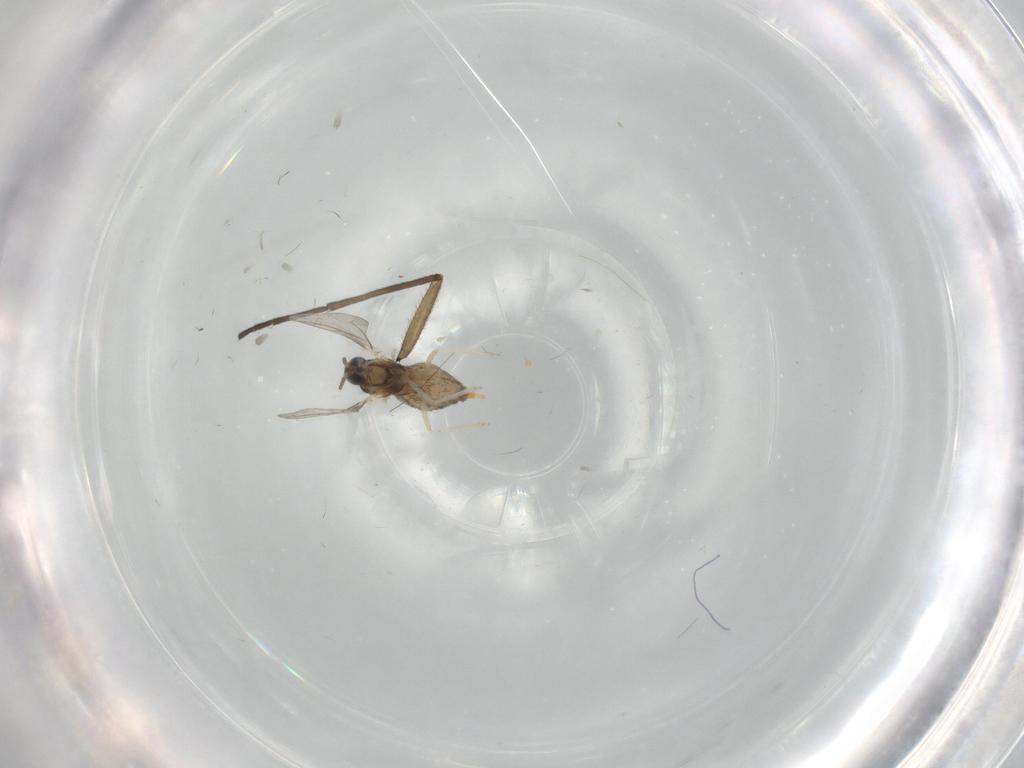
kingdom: Animalia
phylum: Arthropoda
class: Insecta
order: Diptera
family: Cecidomyiidae
